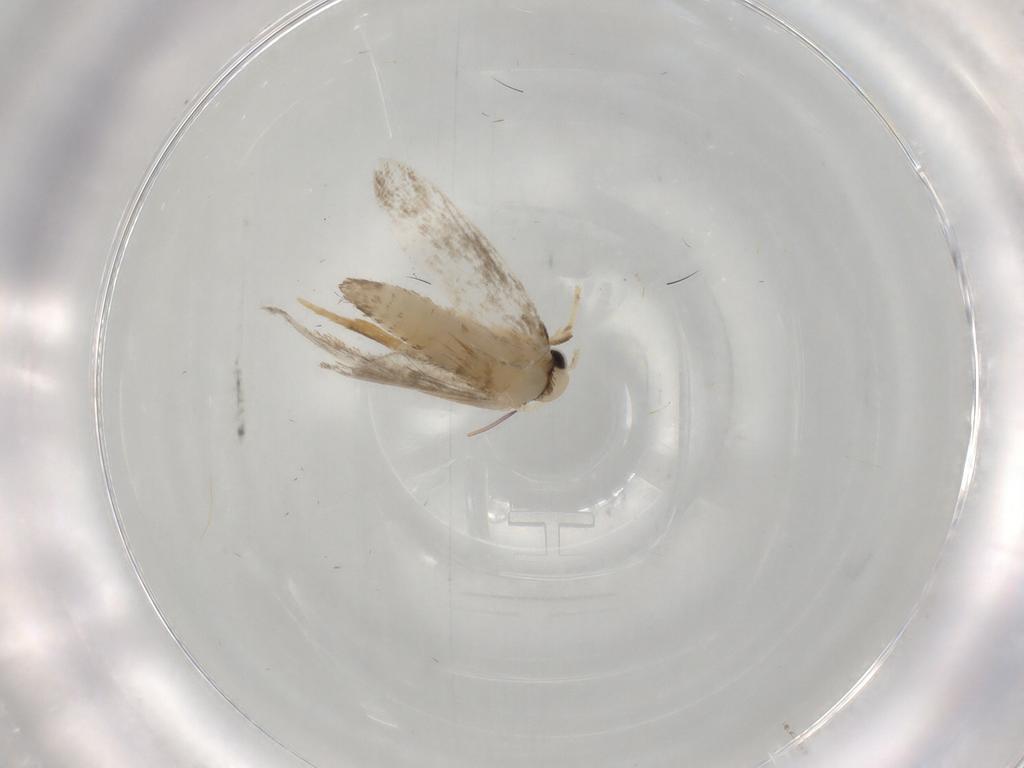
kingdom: Animalia
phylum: Arthropoda
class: Insecta
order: Lepidoptera
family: Psychidae
